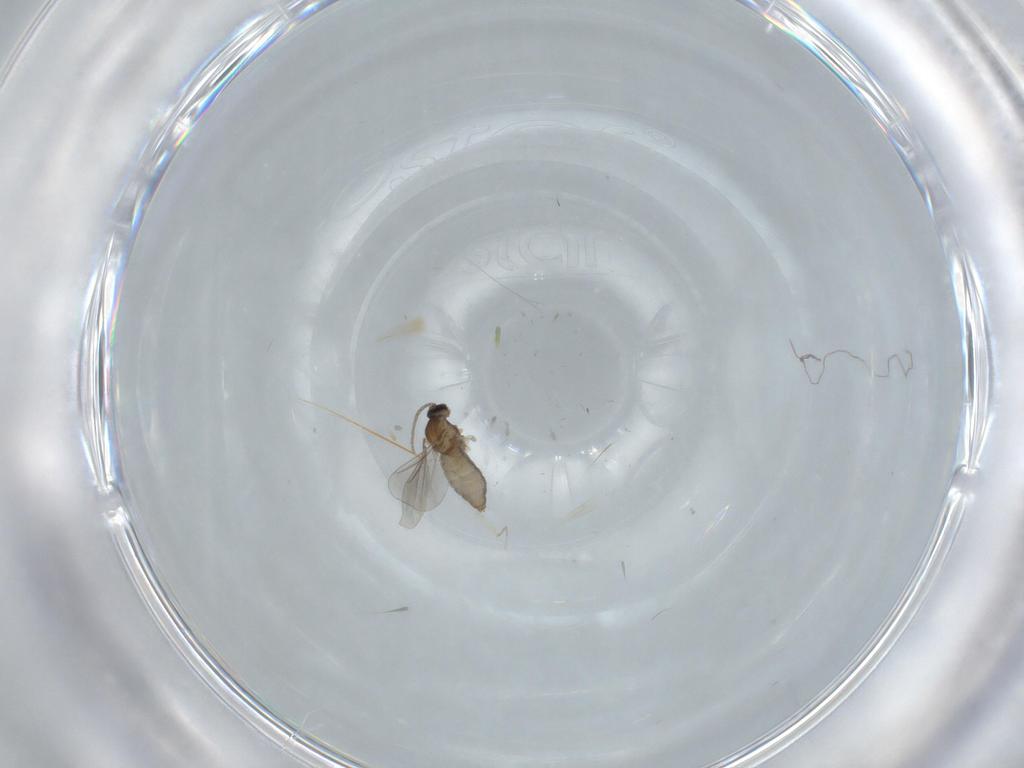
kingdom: Animalia
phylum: Arthropoda
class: Insecta
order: Diptera
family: Cecidomyiidae
